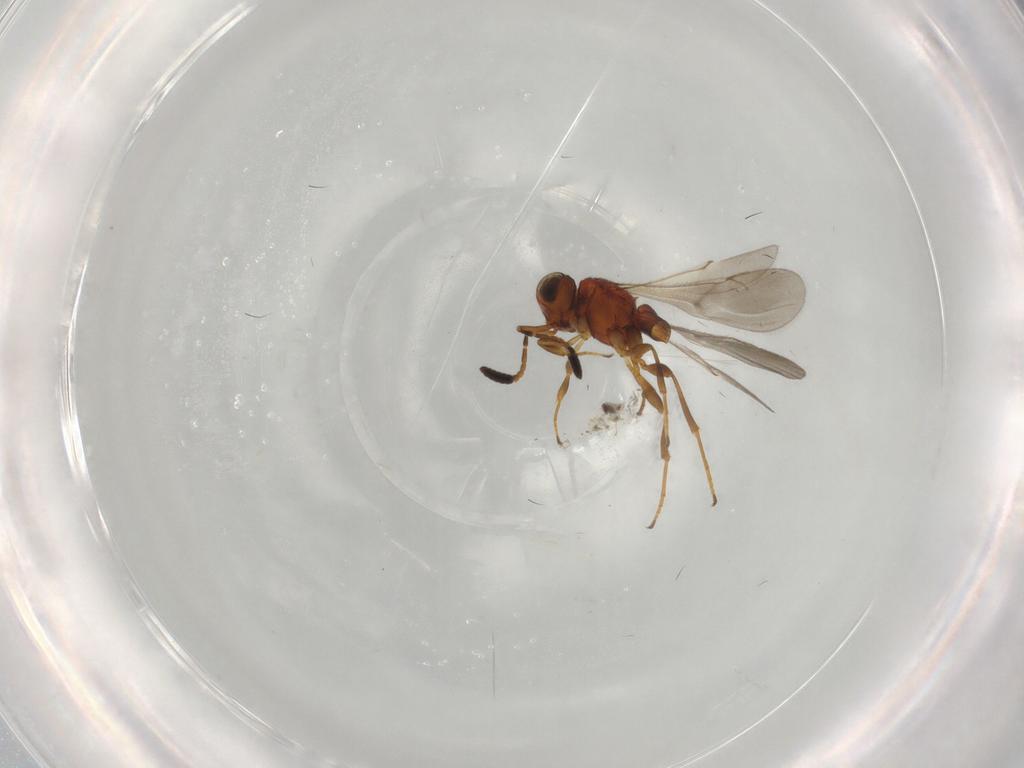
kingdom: Animalia
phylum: Arthropoda
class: Insecta
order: Hymenoptera
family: Scelionidae
